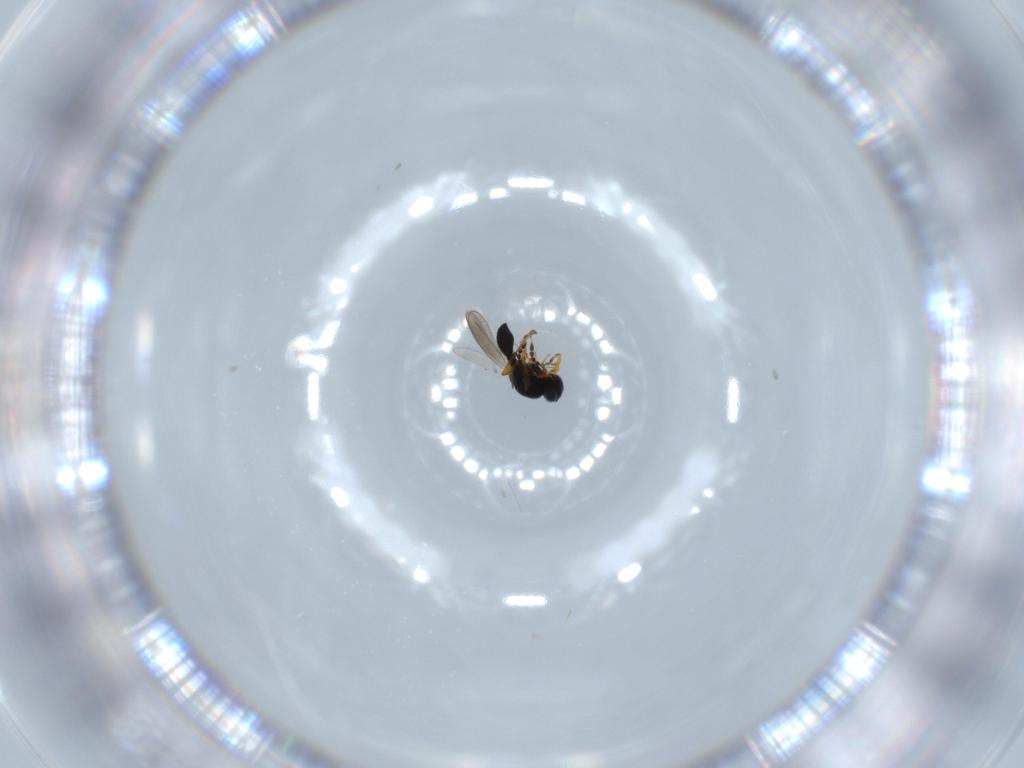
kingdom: Animalia
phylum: Arthropoda
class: Insecta
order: Hymenoptera
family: Platygastridae
